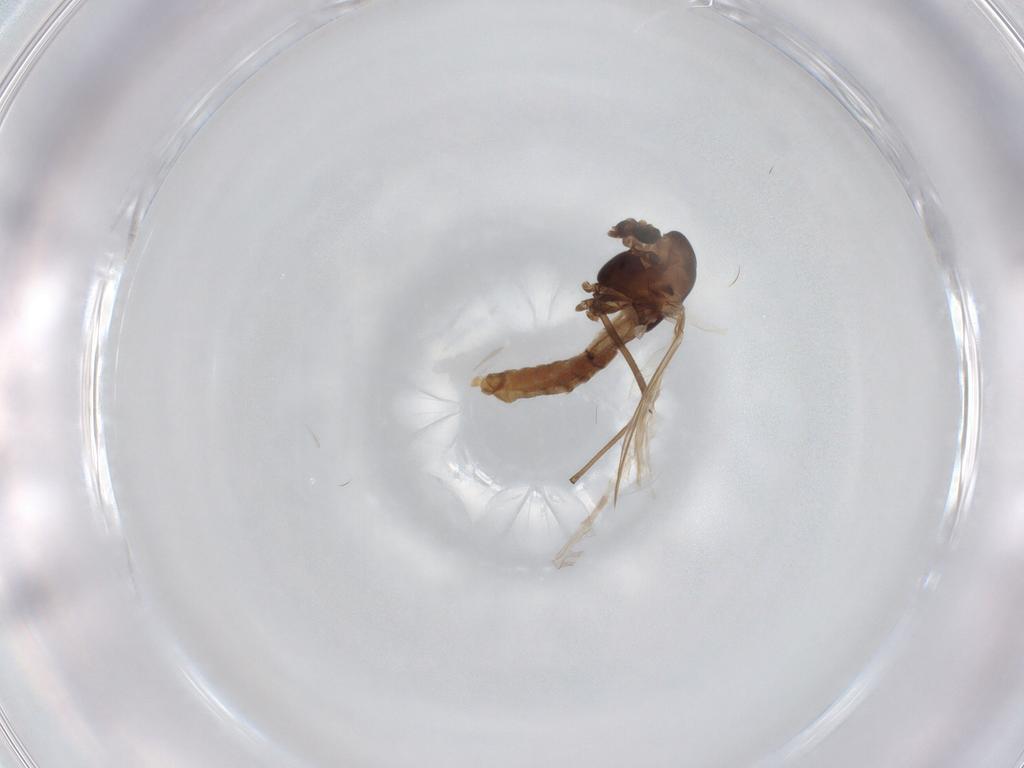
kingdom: Animalia
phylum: Arthropoda
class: Insecta
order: Diptera
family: Chironomidae
